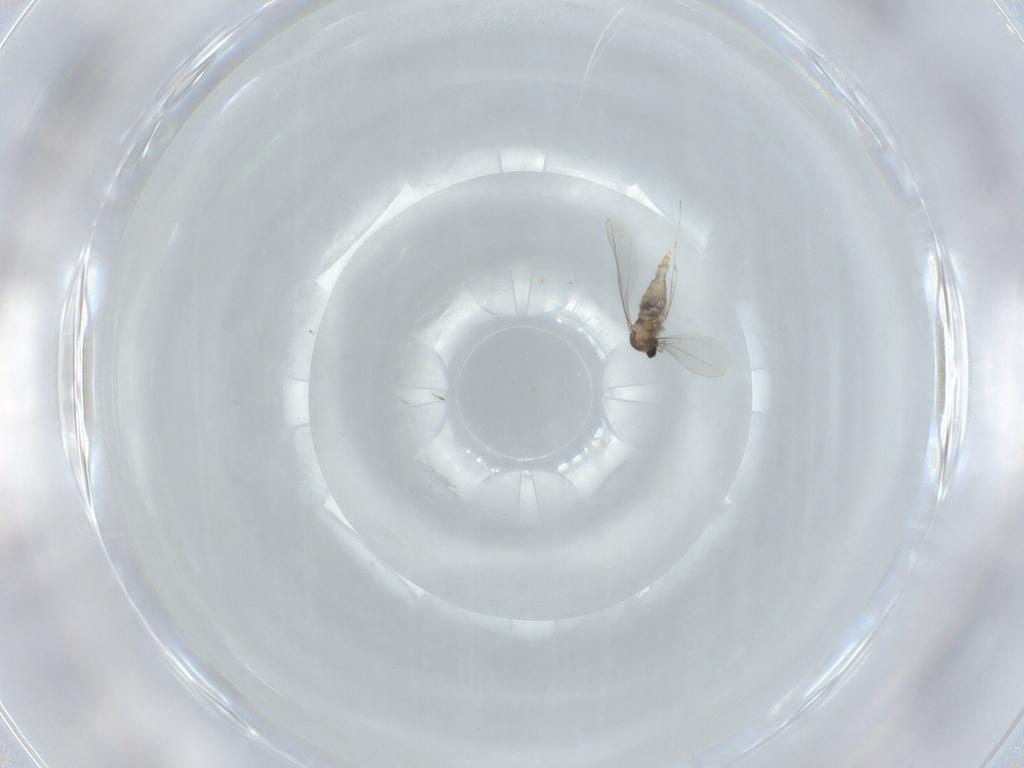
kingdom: Animalia
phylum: Arthropoda
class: Insecta
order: Diptera
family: Cecidomyiidae
